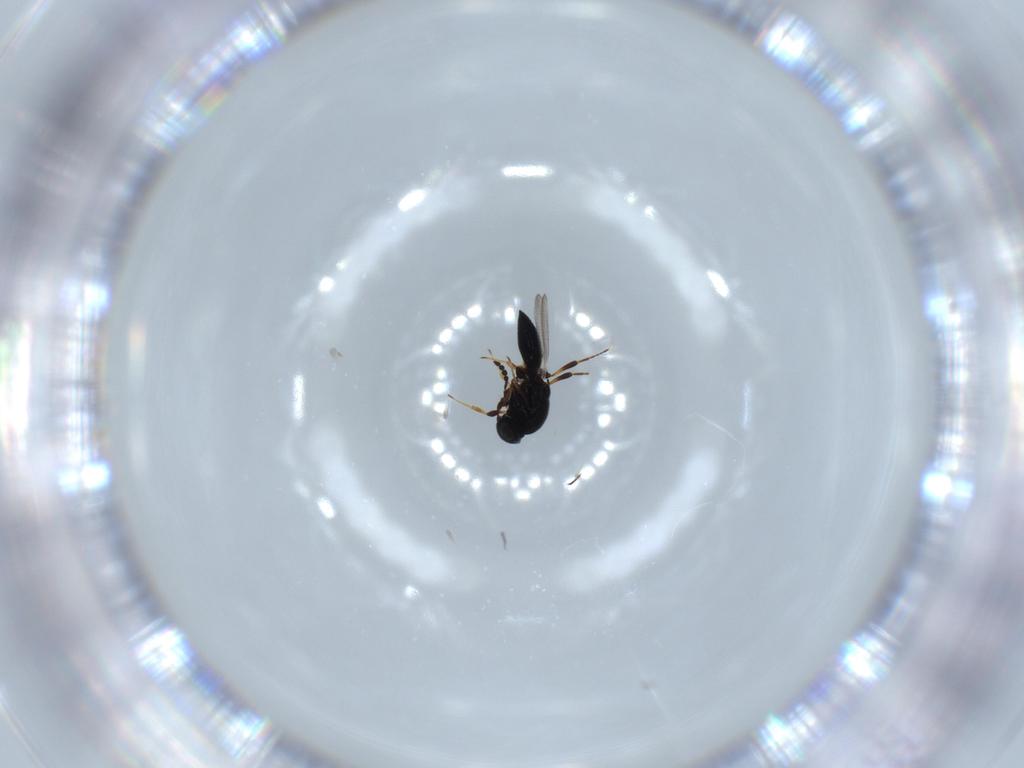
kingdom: Animalia
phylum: Arthropoda
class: Insecta
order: Hymenoptera
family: Platygastridae
